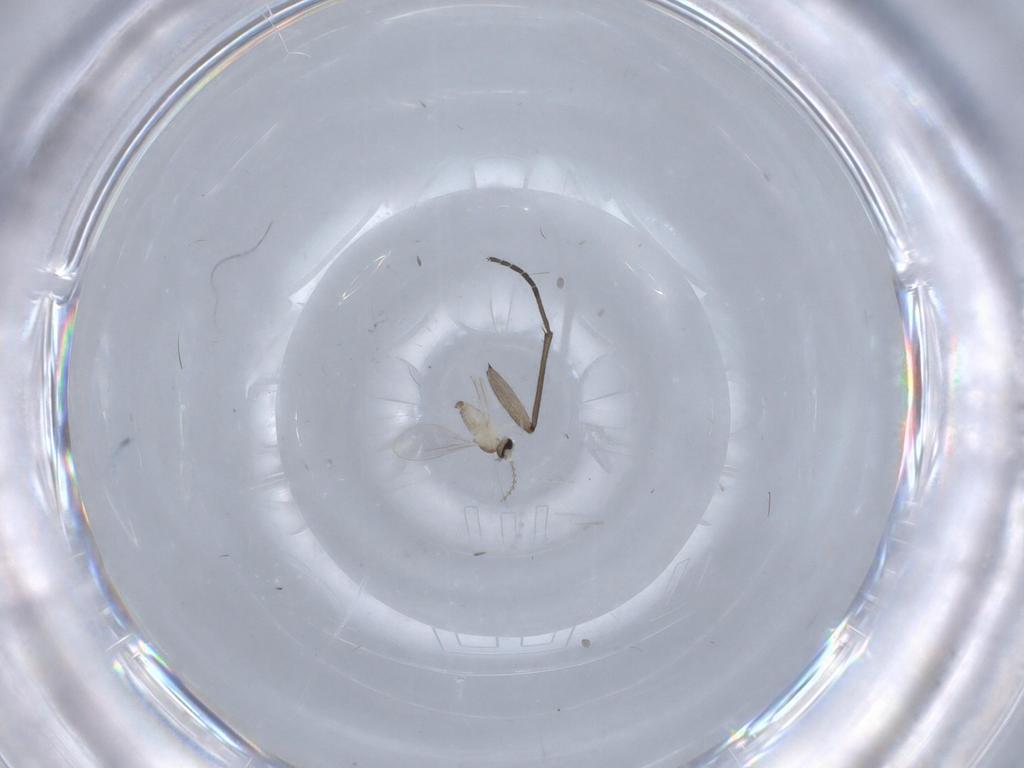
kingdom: Animalia
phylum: Arthropoda
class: Insecta
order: Diptera
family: Cecidomyiidae
